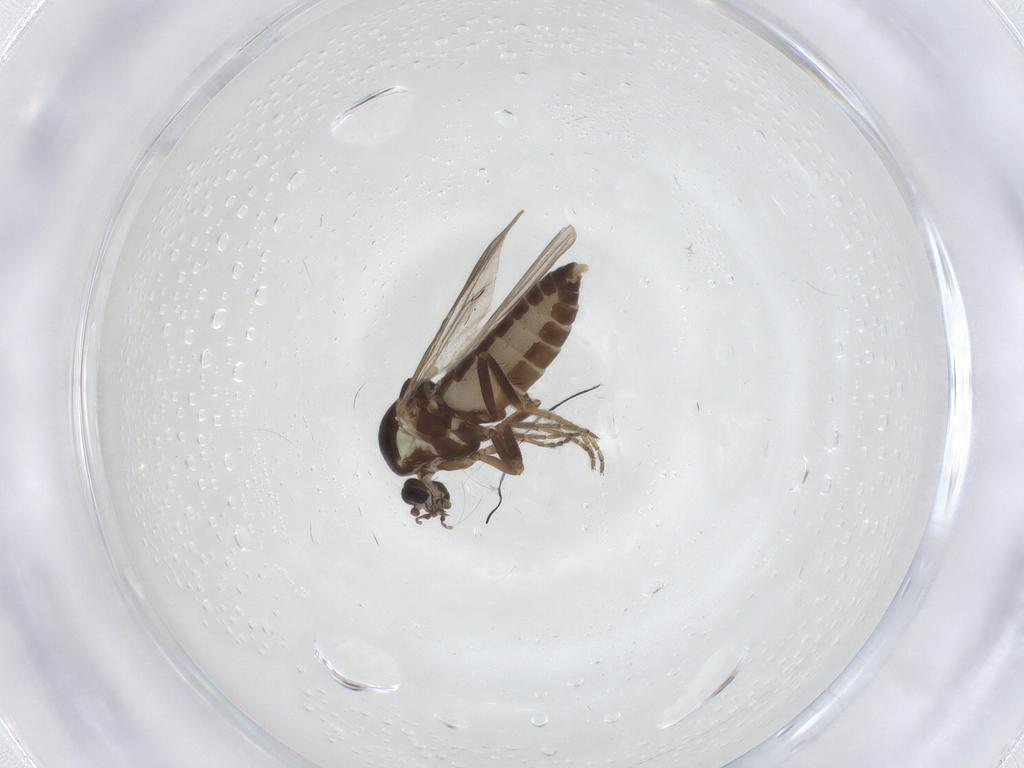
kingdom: Animalia
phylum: Arthropoda
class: Insecta
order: Diptera
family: Ceratopogonidae
